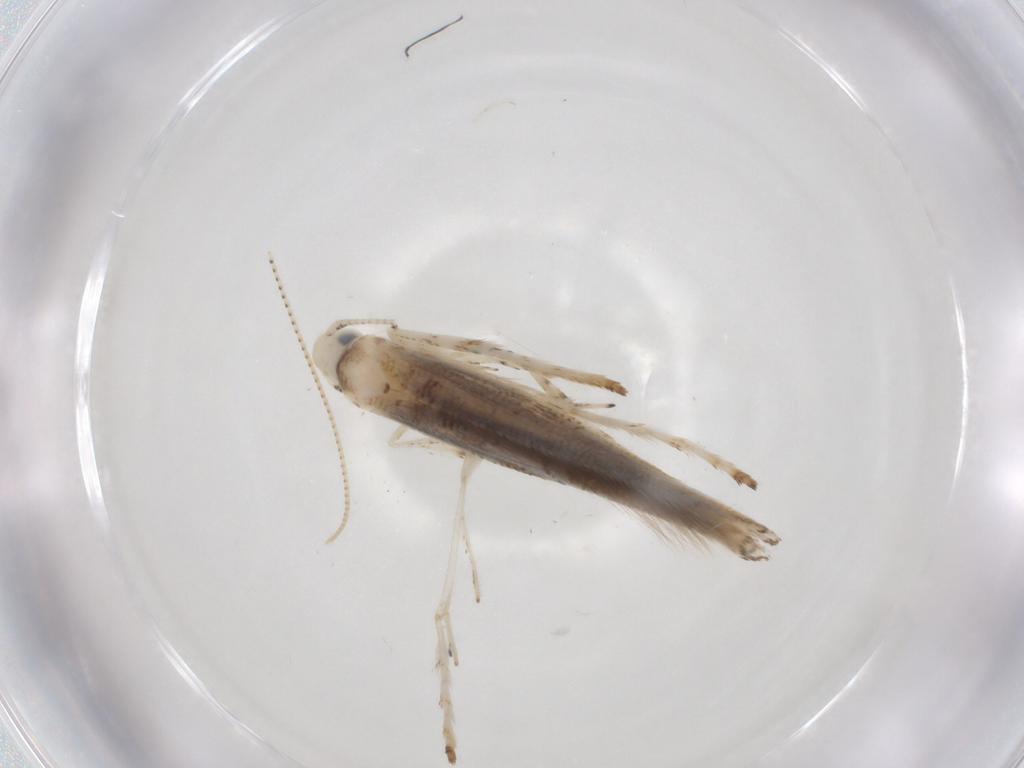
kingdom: Animalia
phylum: Arthropoda
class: Insecta
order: Lepidoptera
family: Gracillariidae
